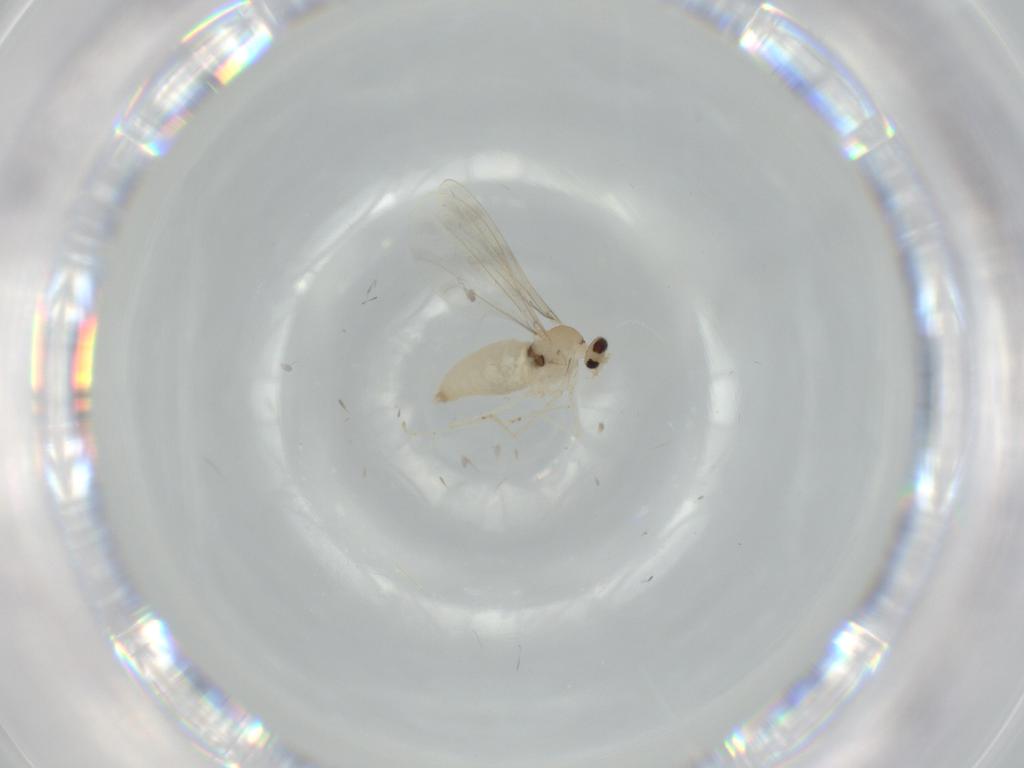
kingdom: Animalia
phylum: Arthropoda
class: Insecta
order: Diptera
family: Cecidomyiidae
